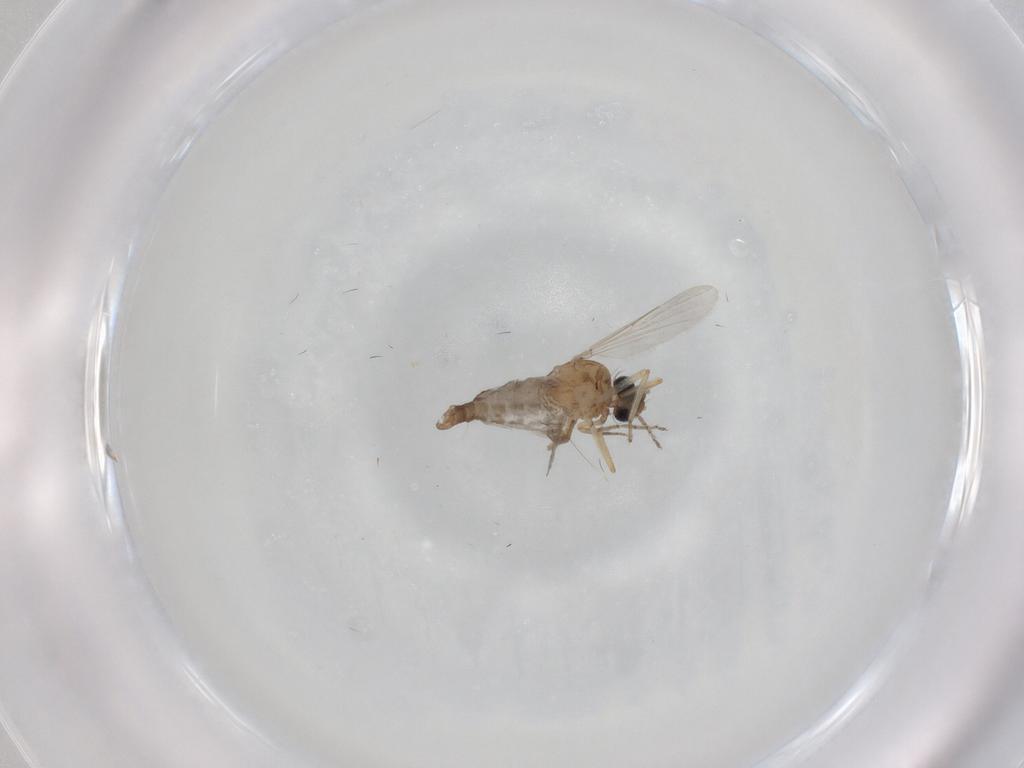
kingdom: Animalia
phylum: Arthropoda
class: Insecta
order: Diptera
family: Ceratopogonidae
